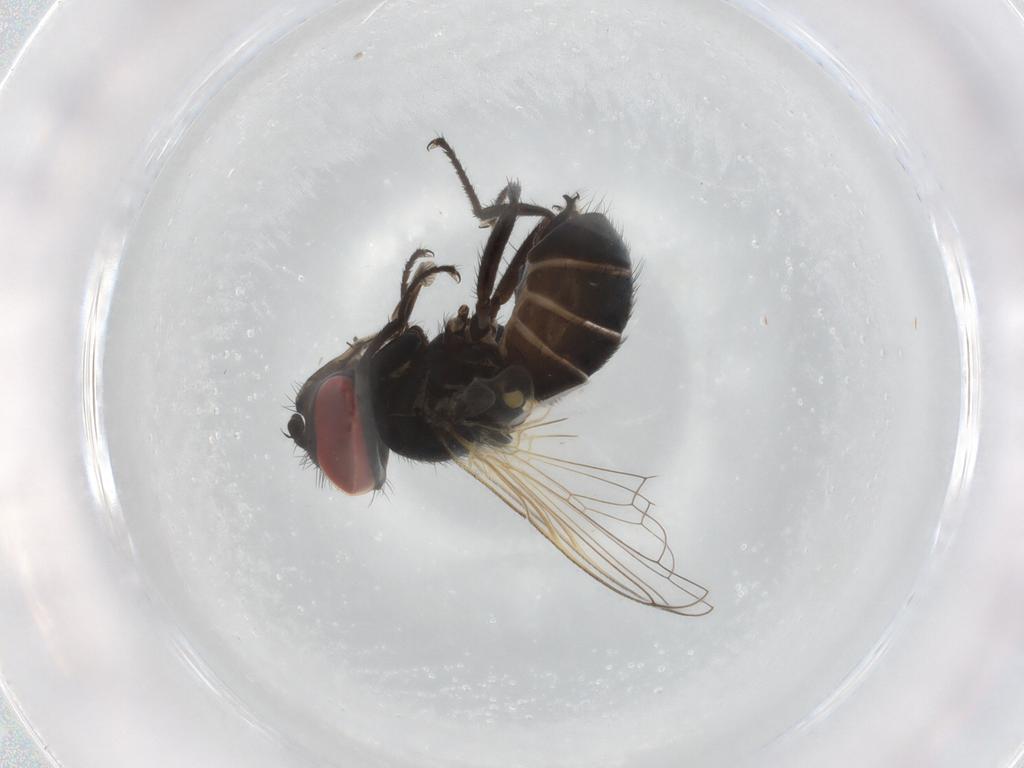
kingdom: Animalia
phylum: Arthropoda
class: Insecta
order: Diptera
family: Tachinidae
